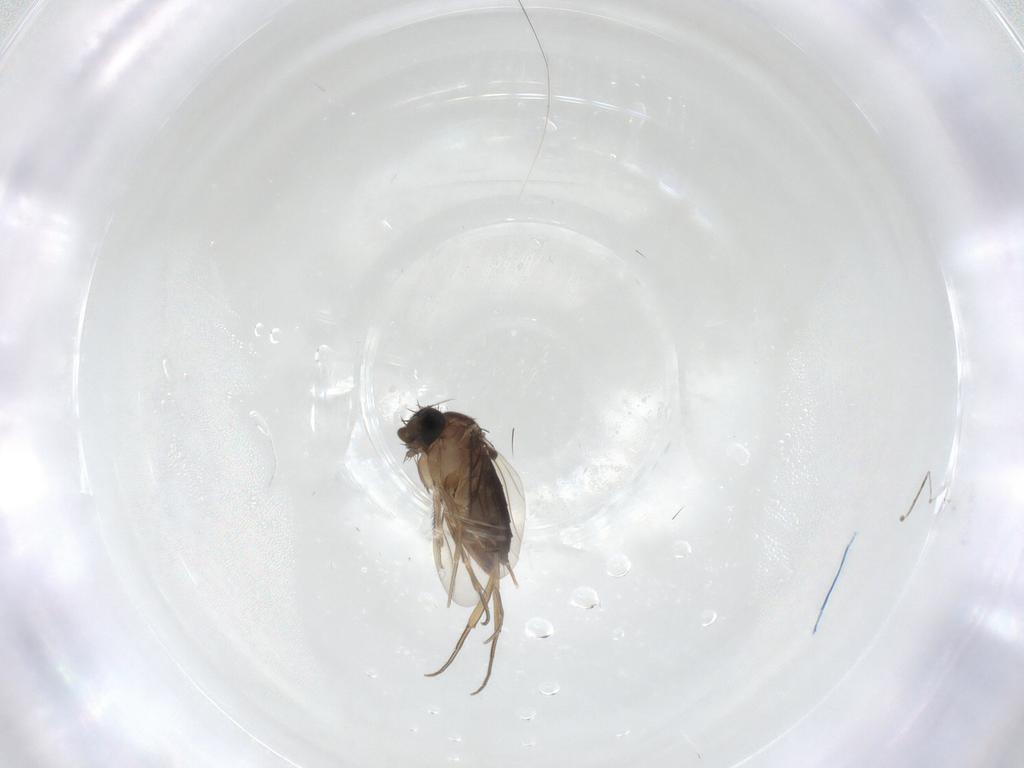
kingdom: Animalia
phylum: Arthropoda
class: Insecta
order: Diptera
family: Cecidomyiidae
